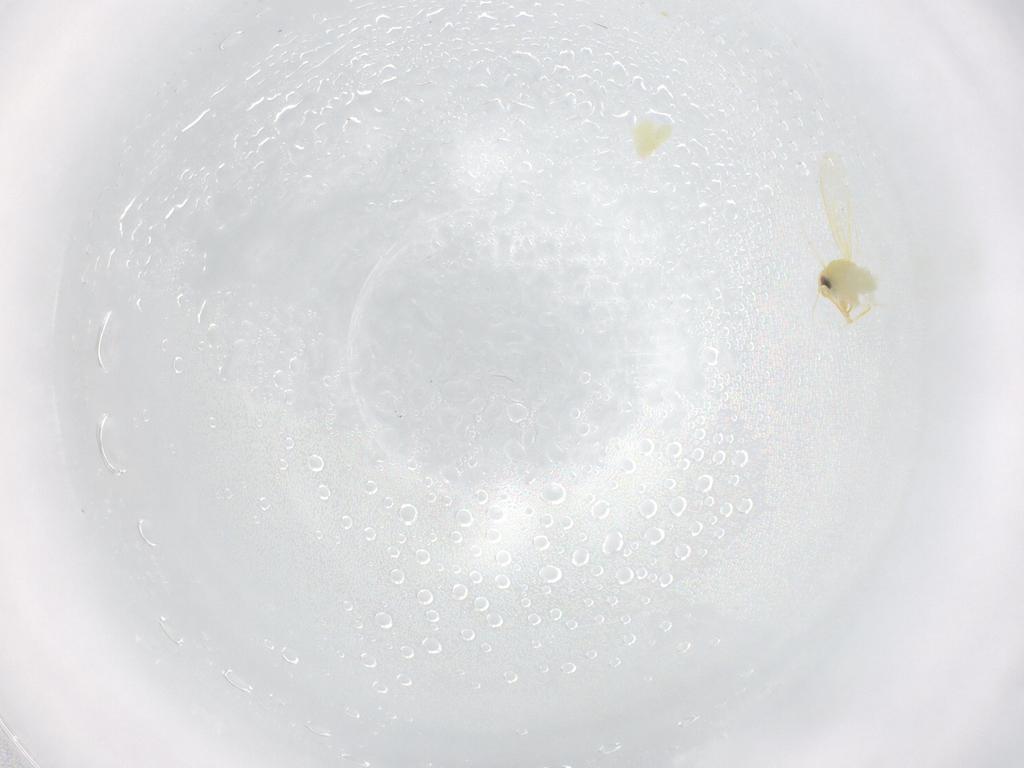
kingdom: Animalia
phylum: Arthropoda
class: Insecta
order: Hemiptera
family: Aleyrodidae
